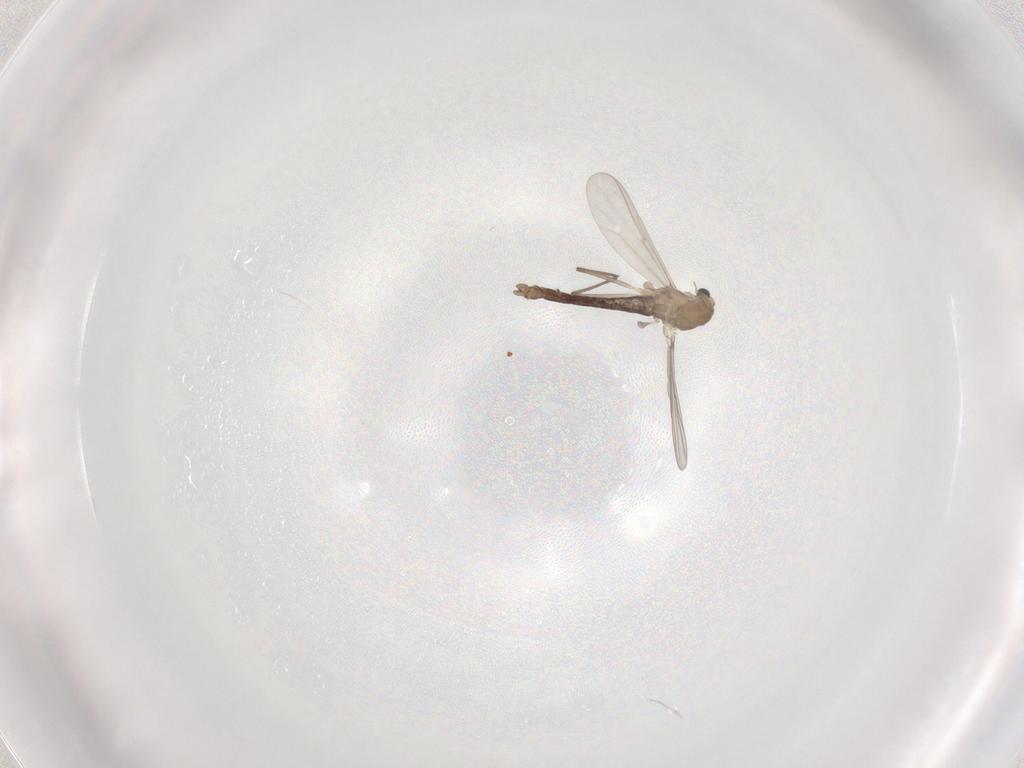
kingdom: Animalia
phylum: Arthropoda
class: Insecta
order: Diptera
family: Chironomidae
